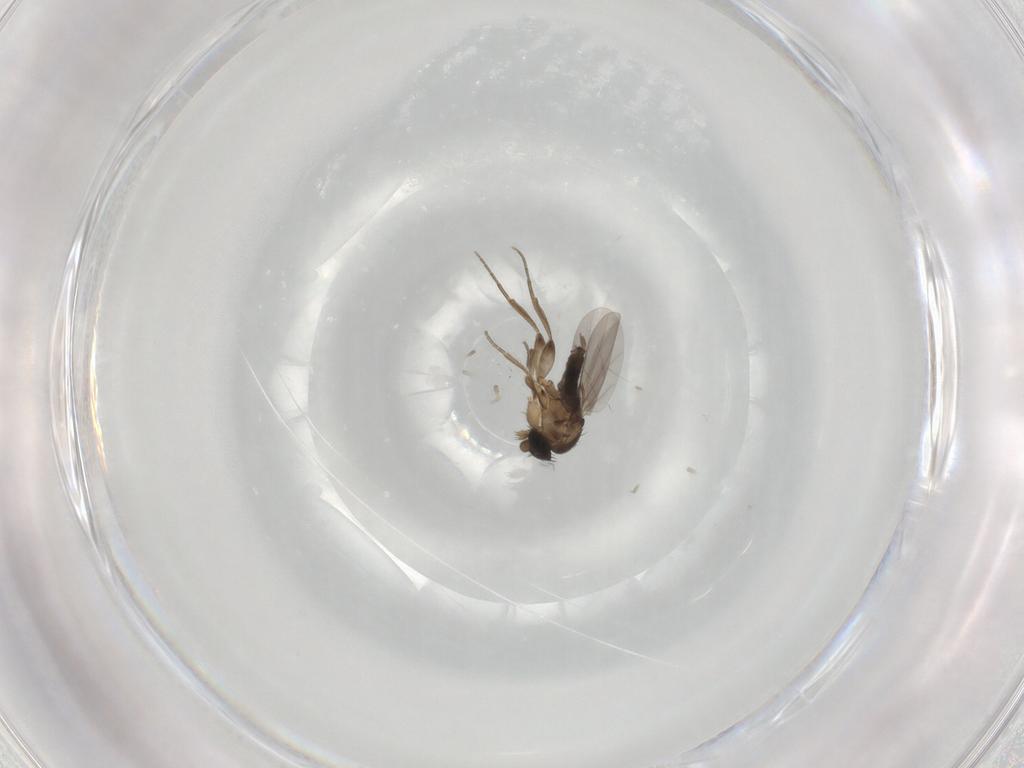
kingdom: Animalia
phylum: Arthropoda
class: Insecta
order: Diptera
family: Phoridae
